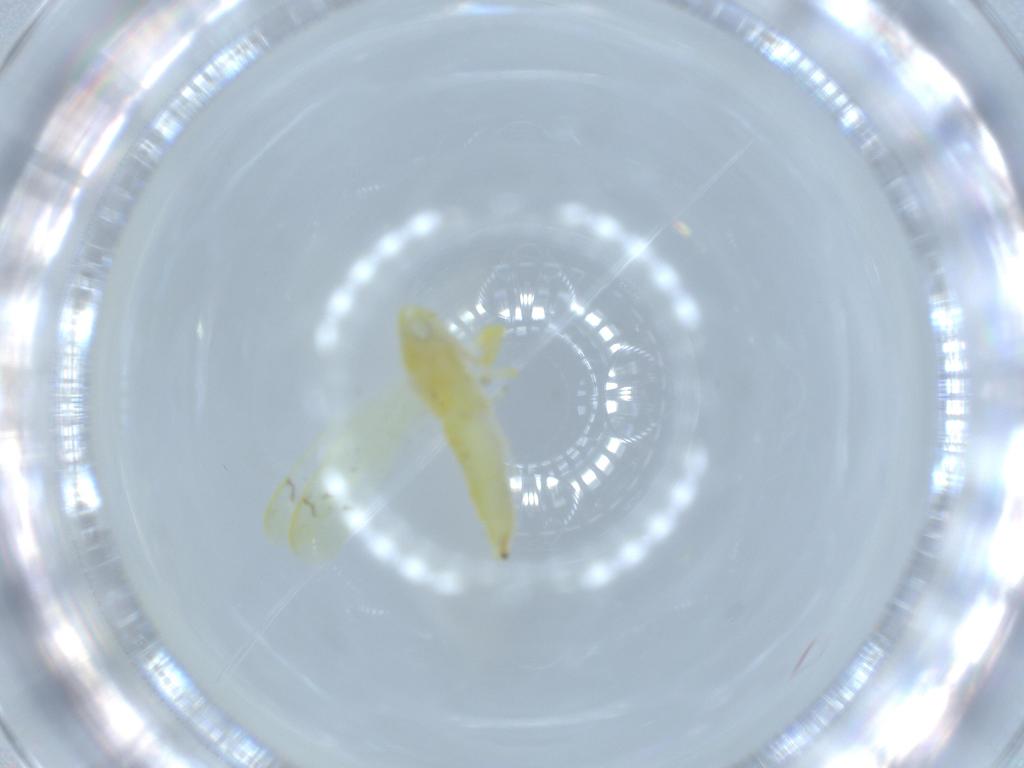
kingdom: Animalia
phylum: Arthropoda
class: Insecta
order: Hemiptera
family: Cicadellidae
